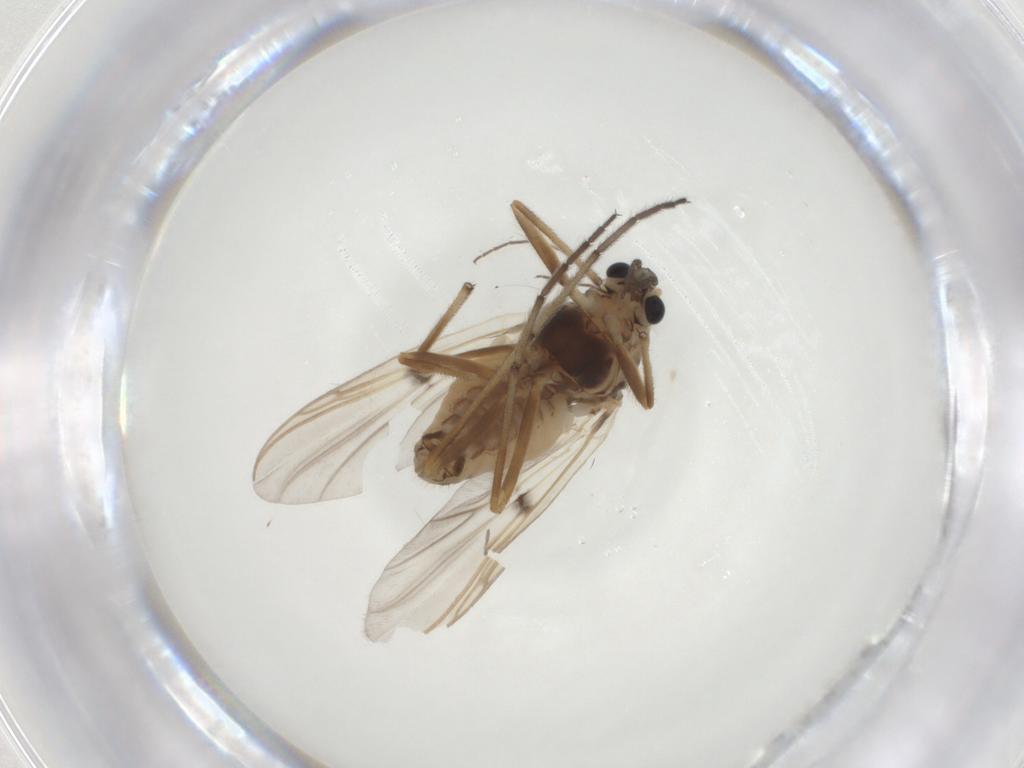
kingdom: Animalia
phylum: Arthropoda
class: Insecta
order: Diptera
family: Chironomidae
